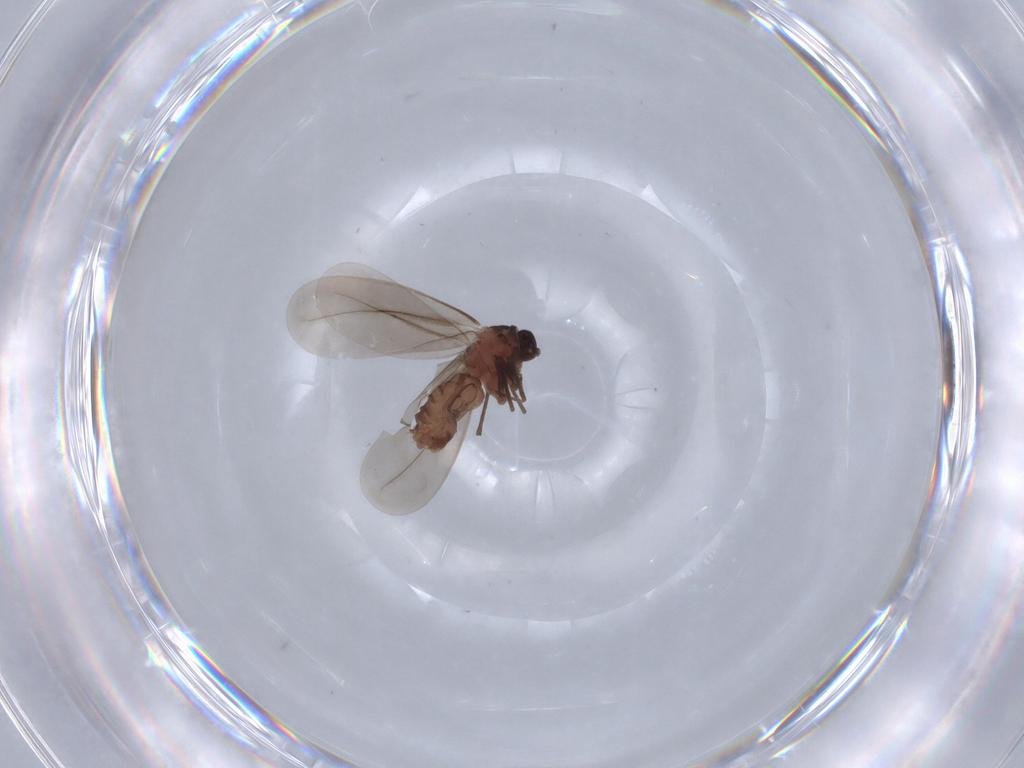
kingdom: Animalia
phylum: Arthropoda
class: Insecta
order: Hemiptera
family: Aleyrodidae
